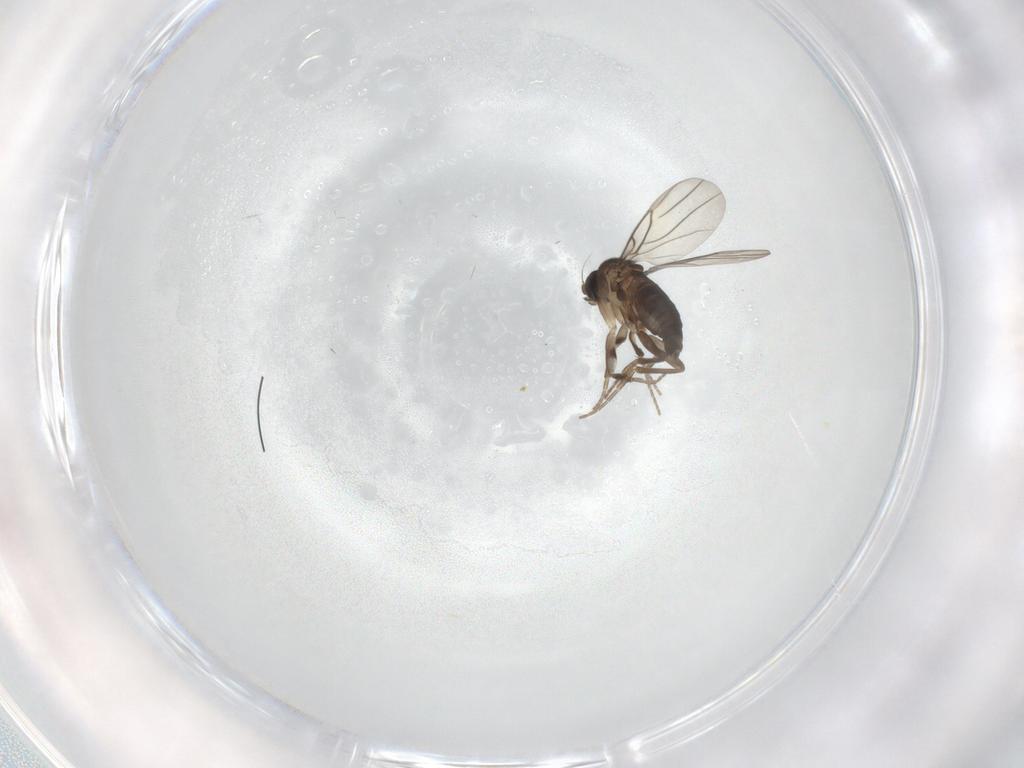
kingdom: Animalia
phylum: Arthropoda
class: Insecta
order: Diptera
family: Phoridae
